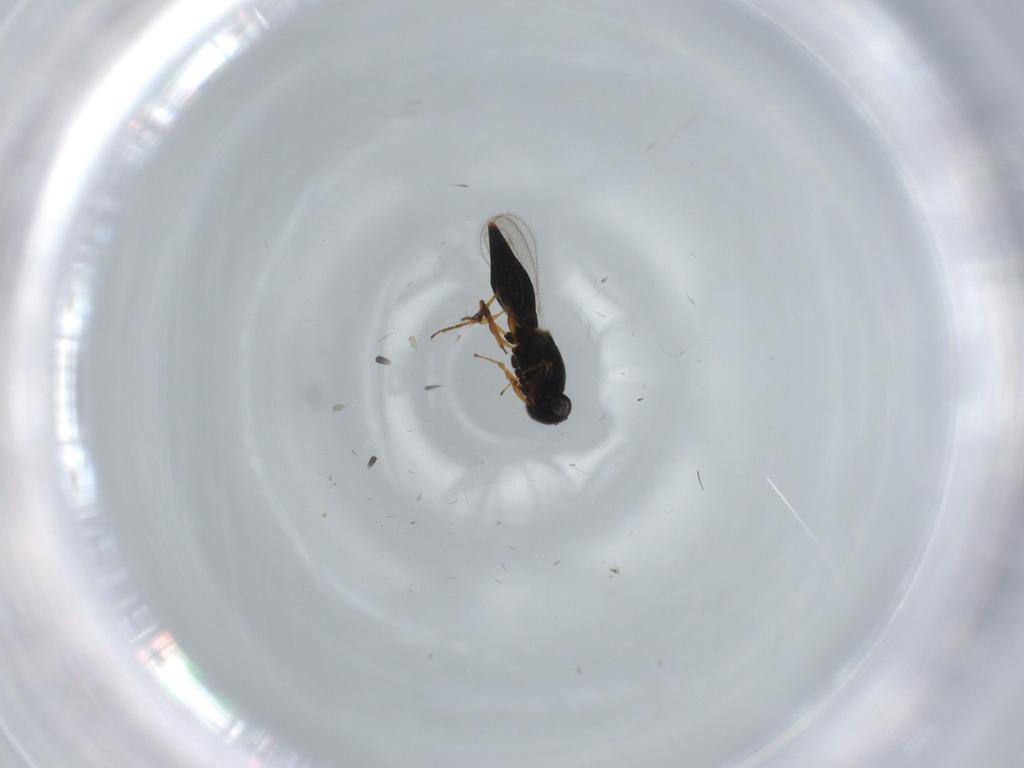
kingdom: Animalia
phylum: Arthropoda
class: Insecta
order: Hymenoptera
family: Platygastridae
